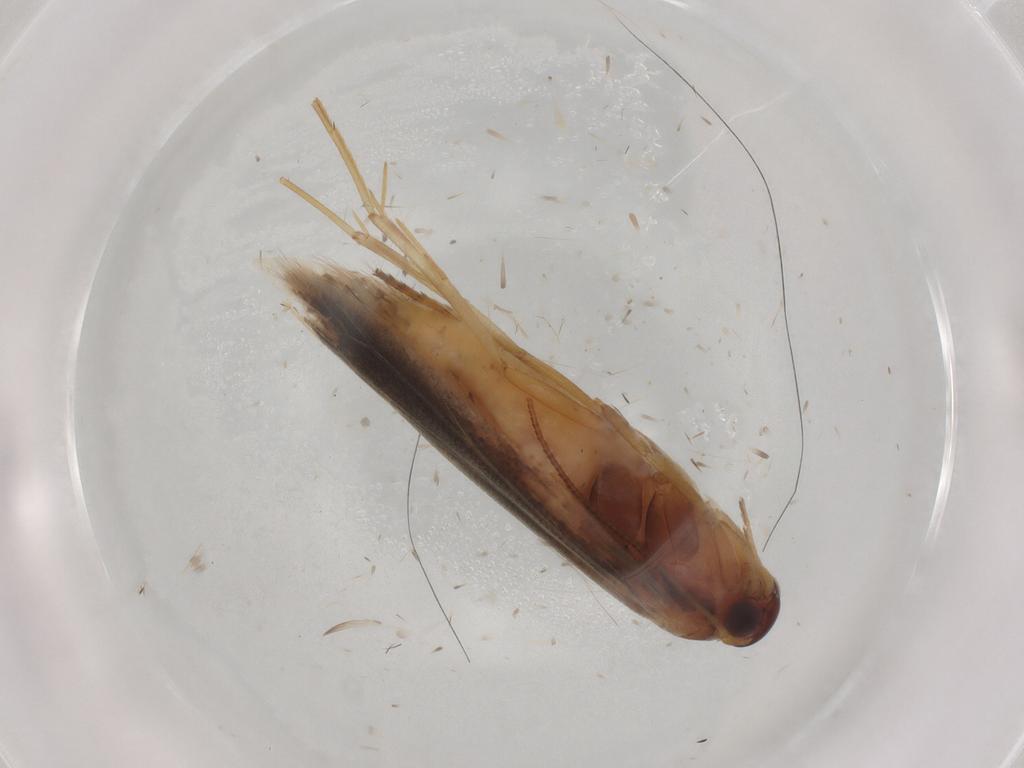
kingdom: Animalia
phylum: Arthropoda
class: Insecta
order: Lepidoptera
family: Scythrididae
